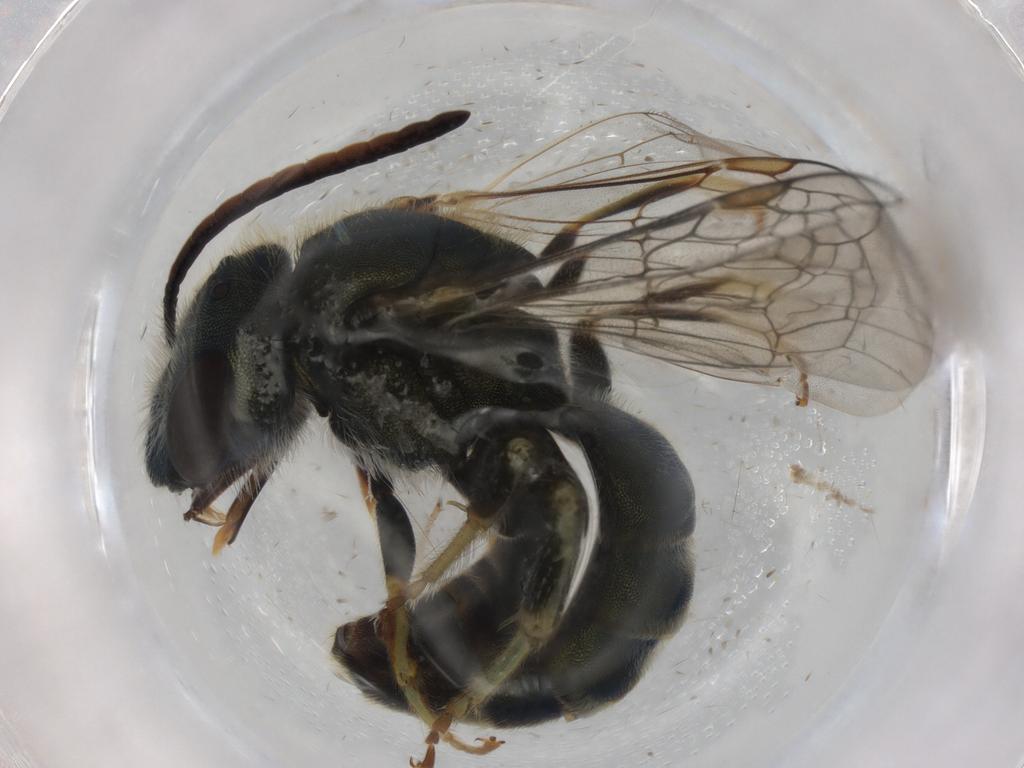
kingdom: Animalia
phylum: Arthropoda
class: Insecta
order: Hymenoptera
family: Halictidae
